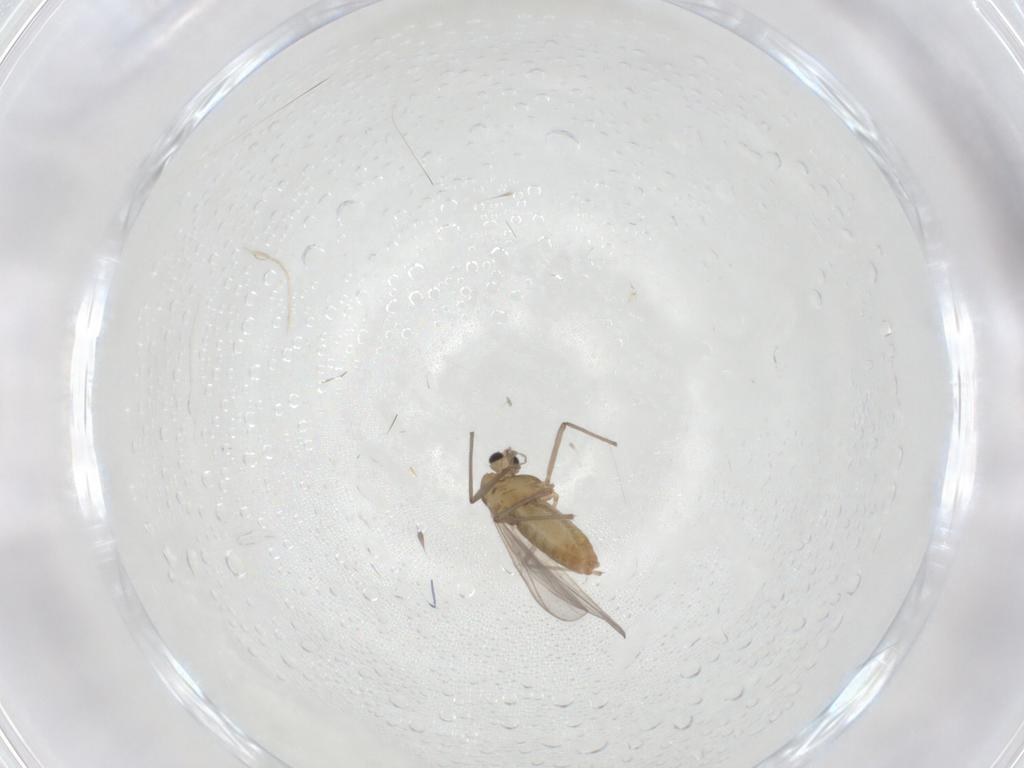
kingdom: Animalia
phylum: Arthropoda
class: Insecta
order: Diptera
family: Chironomidae
